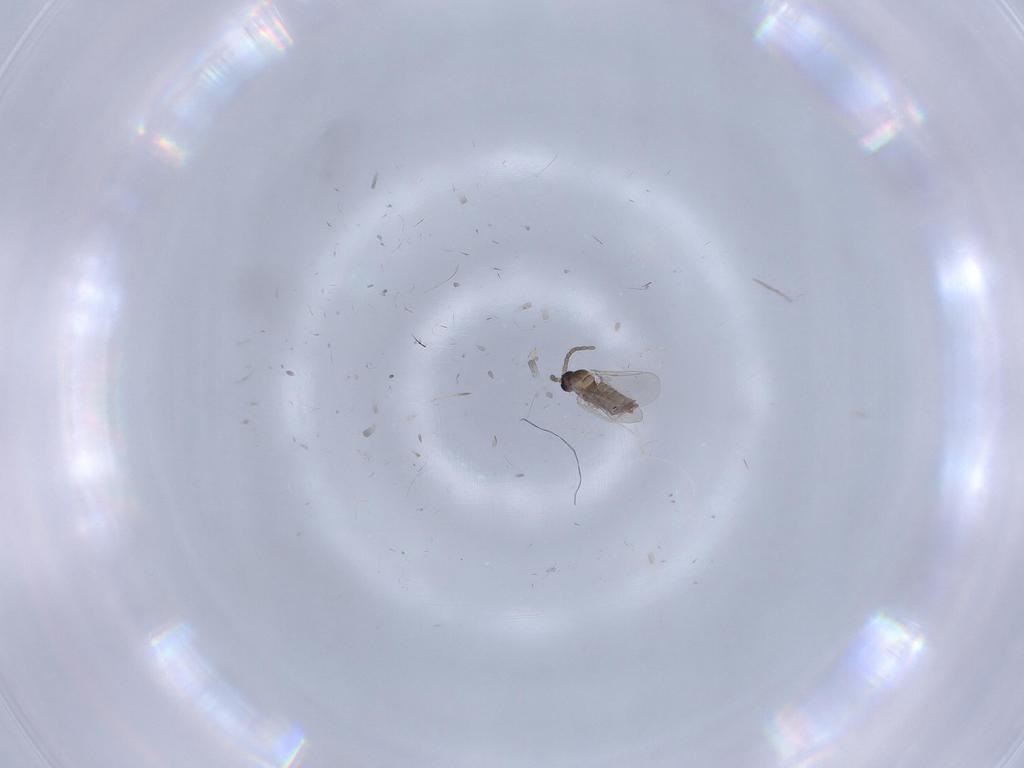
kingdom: Animalia
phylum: Arthropoda
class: Insecta
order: Diptera
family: Cecidomyiidae
